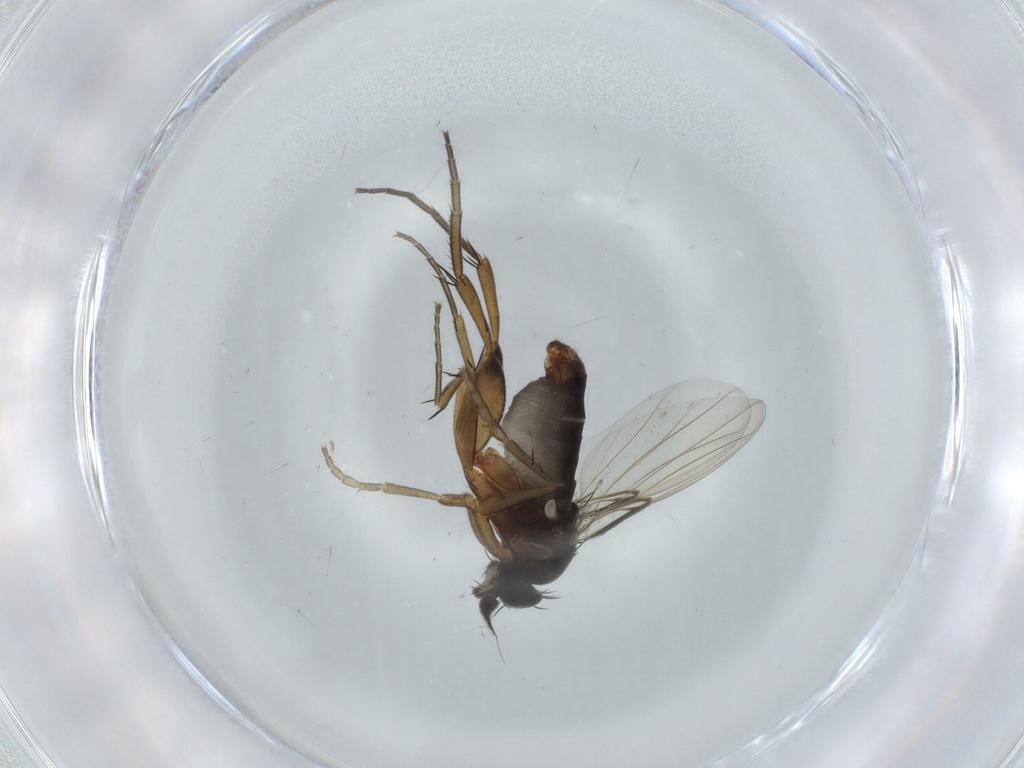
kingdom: Animalia
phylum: Arthropoda
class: Insecta
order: Diptera
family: Phoridae
